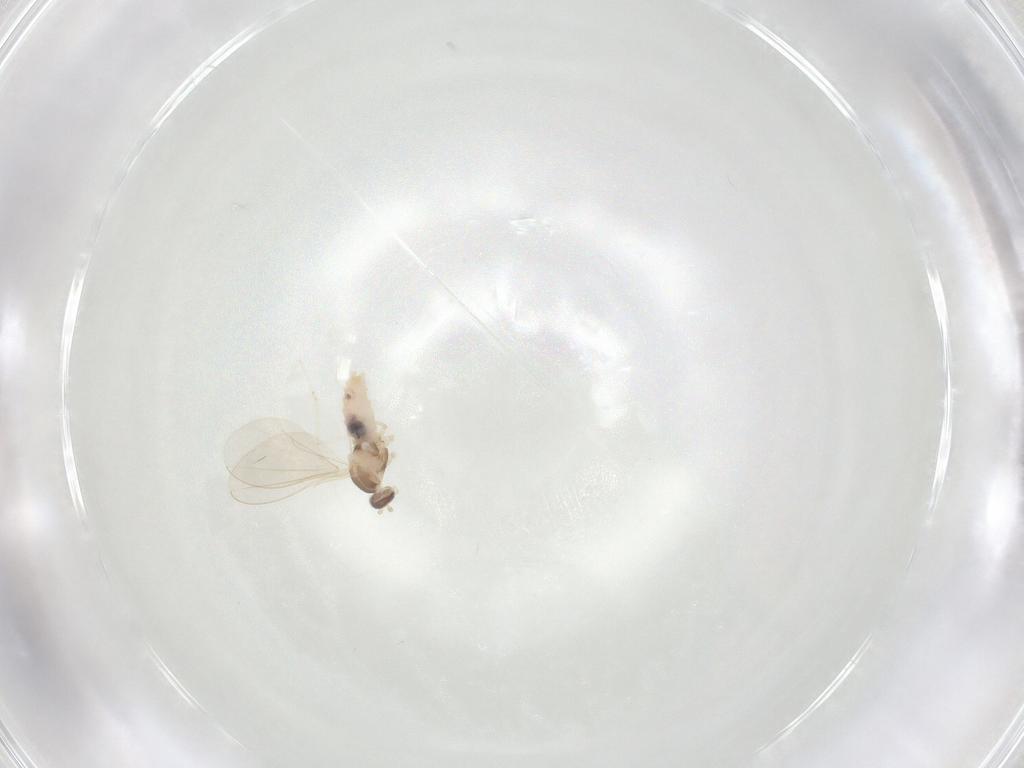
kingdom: Animalia
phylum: Arthropoda
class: Insecta
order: Diptera
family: Cecidomyiidae
